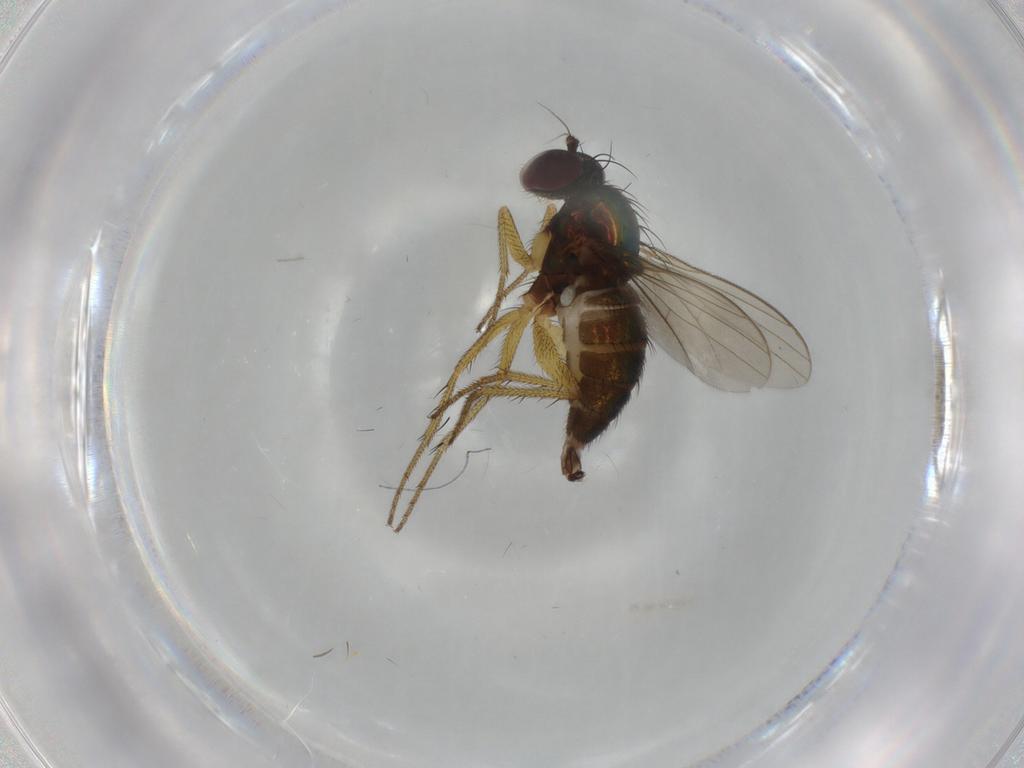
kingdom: Animalia
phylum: Arthropoda
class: Insecta
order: Diptera
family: Dolichopodidae
